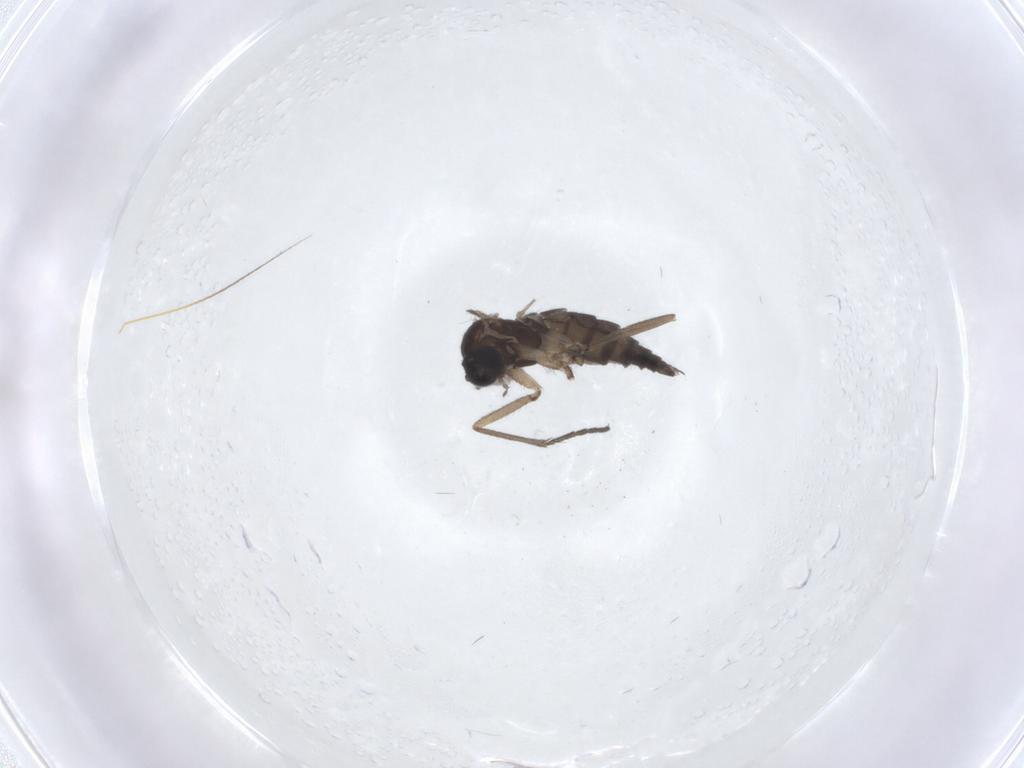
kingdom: Animalia
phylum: Arthropoda
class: Insecta
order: Diptera
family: Sciaridae
